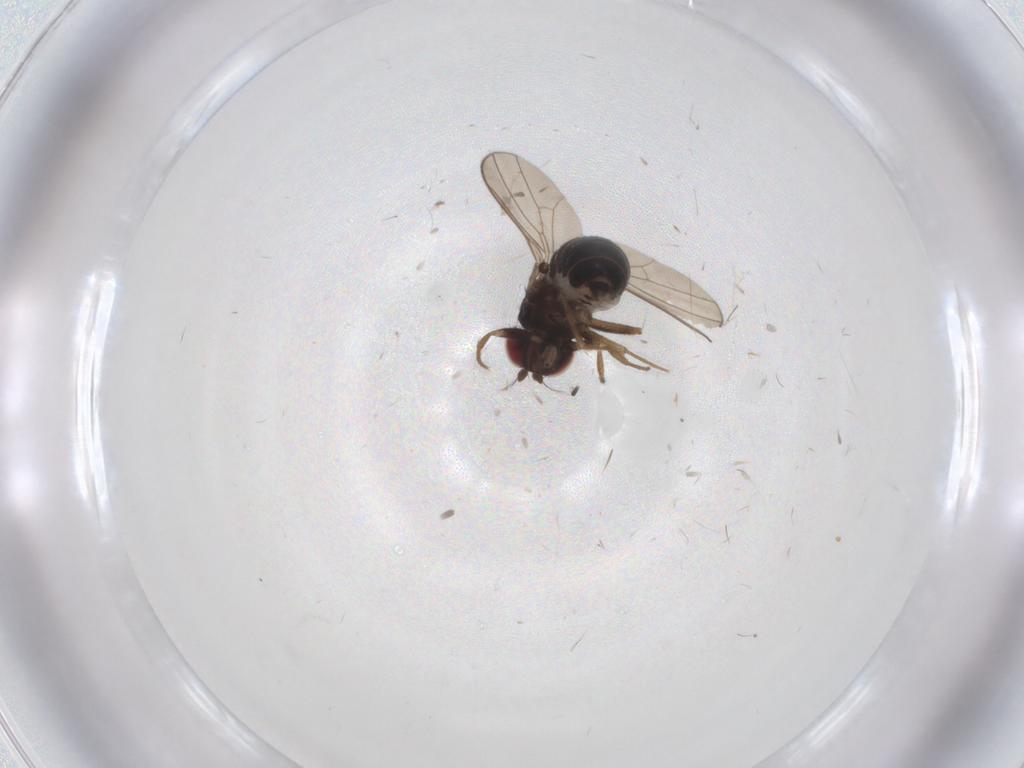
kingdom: Animalia
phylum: Arthropoda
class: Insecta
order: Diptera
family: Drosophilidae
